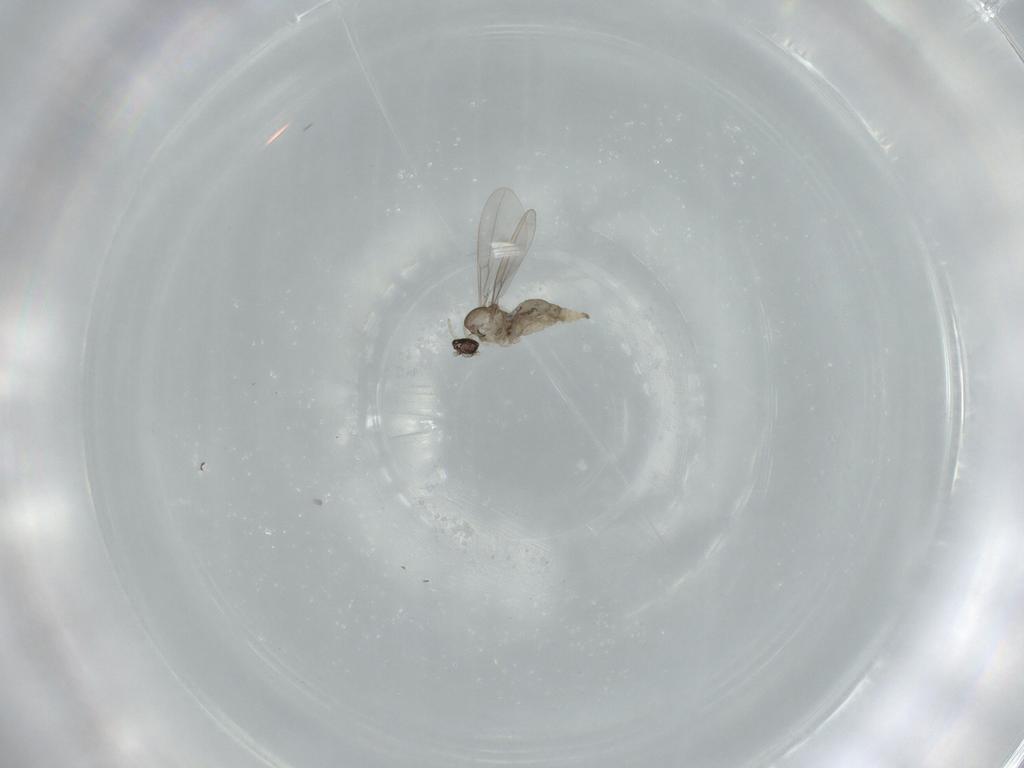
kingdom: Animalia
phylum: Arthropoda
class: Insecta
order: Diptera
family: Cecidomyiidae
